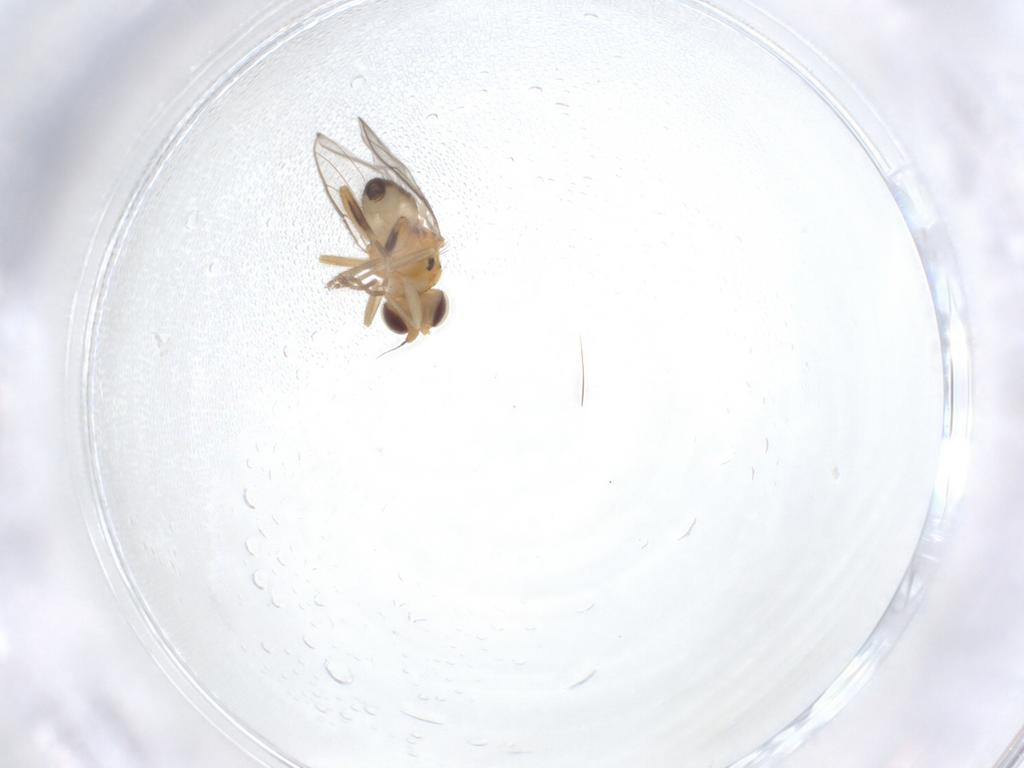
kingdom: Animalia
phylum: Arthropoda
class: Insecta
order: Diptera
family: Chloropidae
